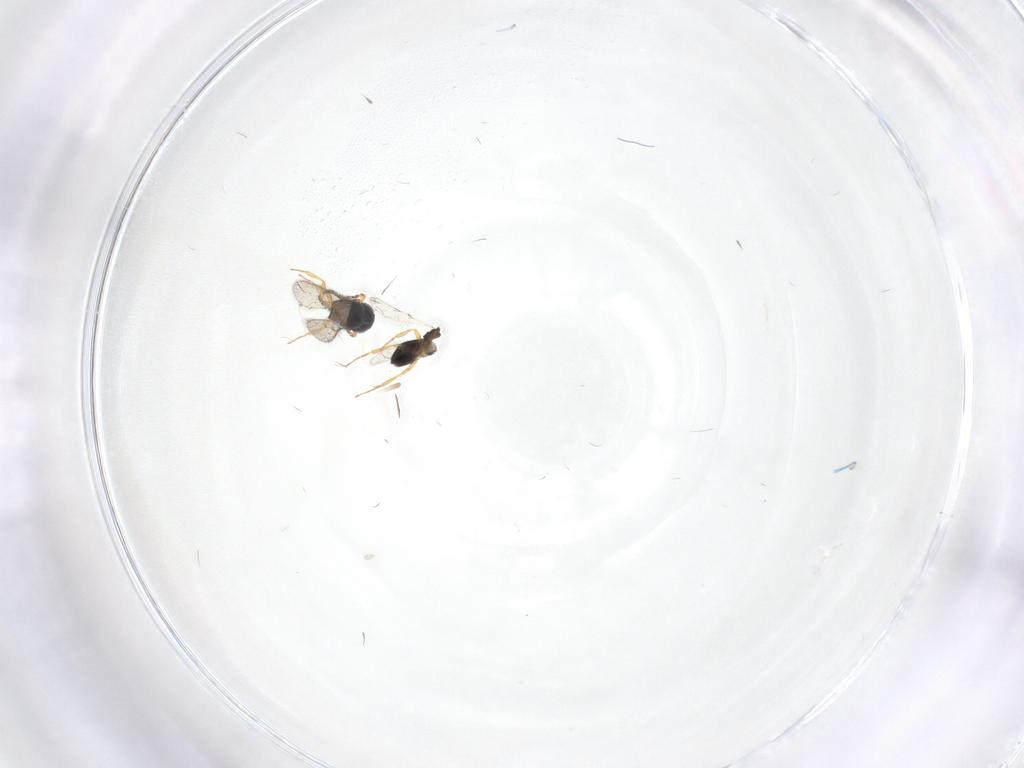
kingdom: Animalia
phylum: Arthropoda
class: Insecta
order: Hymenoptera
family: Scelionidae
